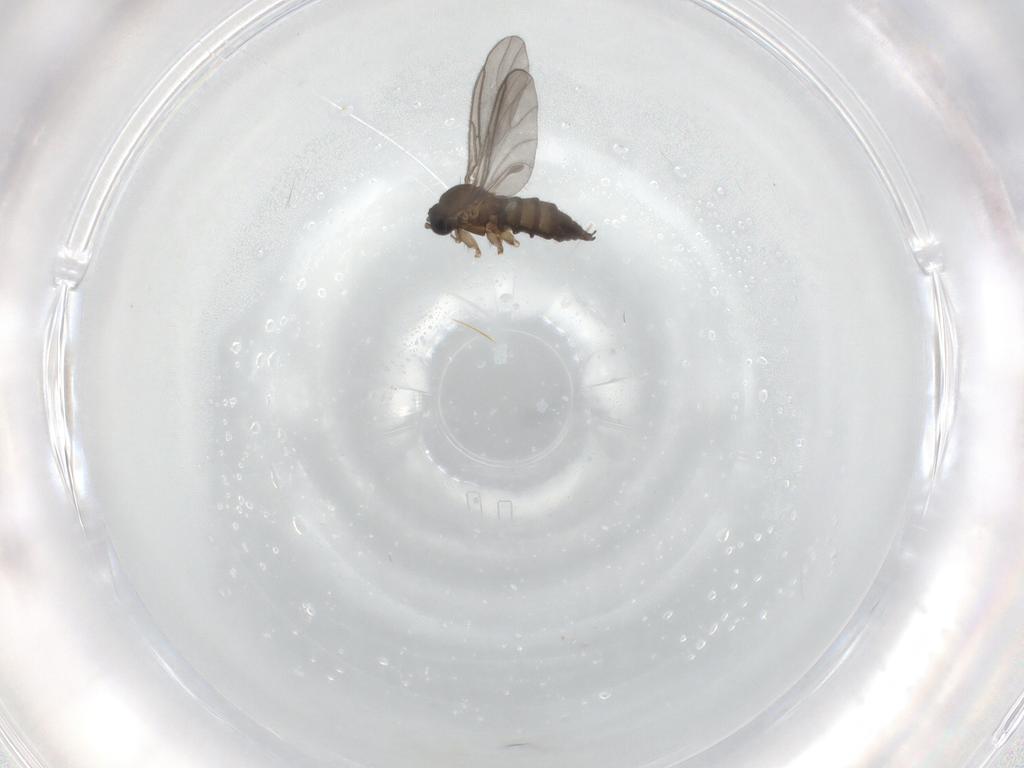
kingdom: Animalia
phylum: Arthropoda
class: Insecta
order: Diptera
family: Sciaridae
